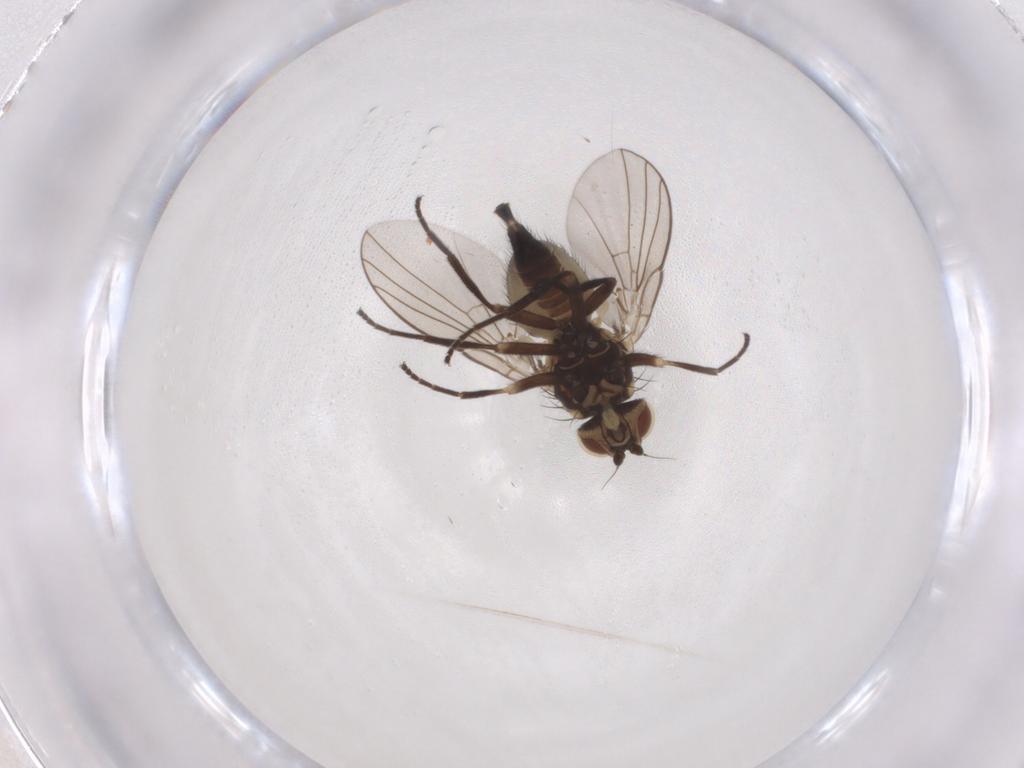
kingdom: Animalia
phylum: Arthropoda
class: Insecta
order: Diptera
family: Agromyzidae
